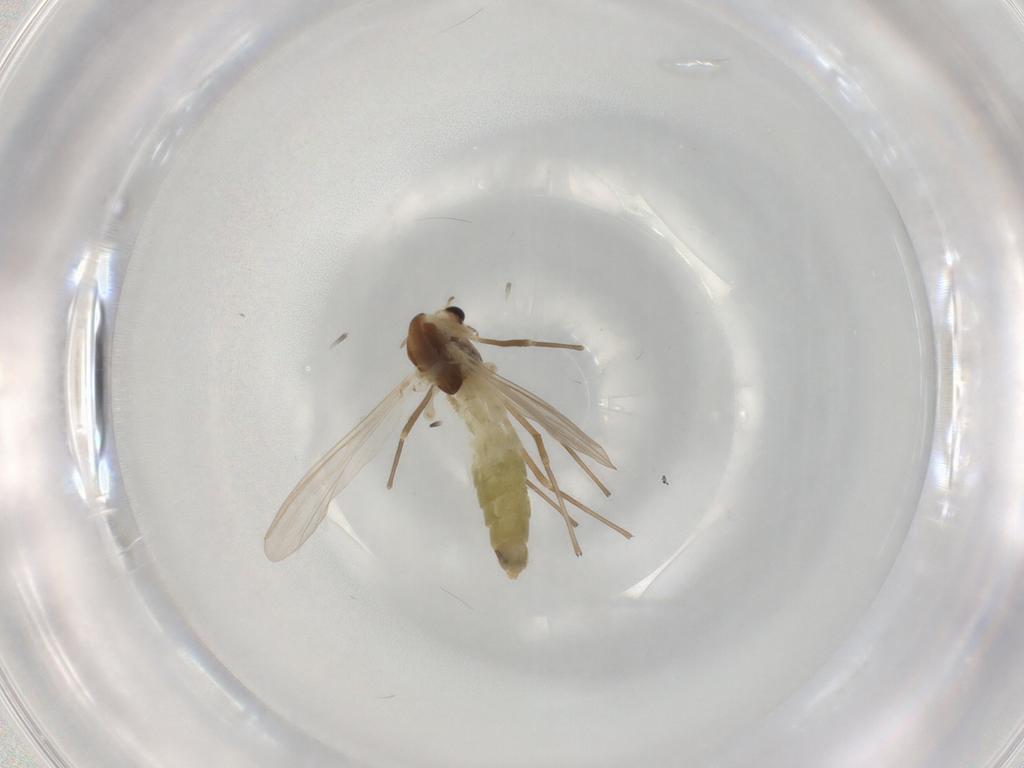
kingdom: Animalia
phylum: Arthropoda
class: Insecta
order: Diptera
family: Chironomidae
